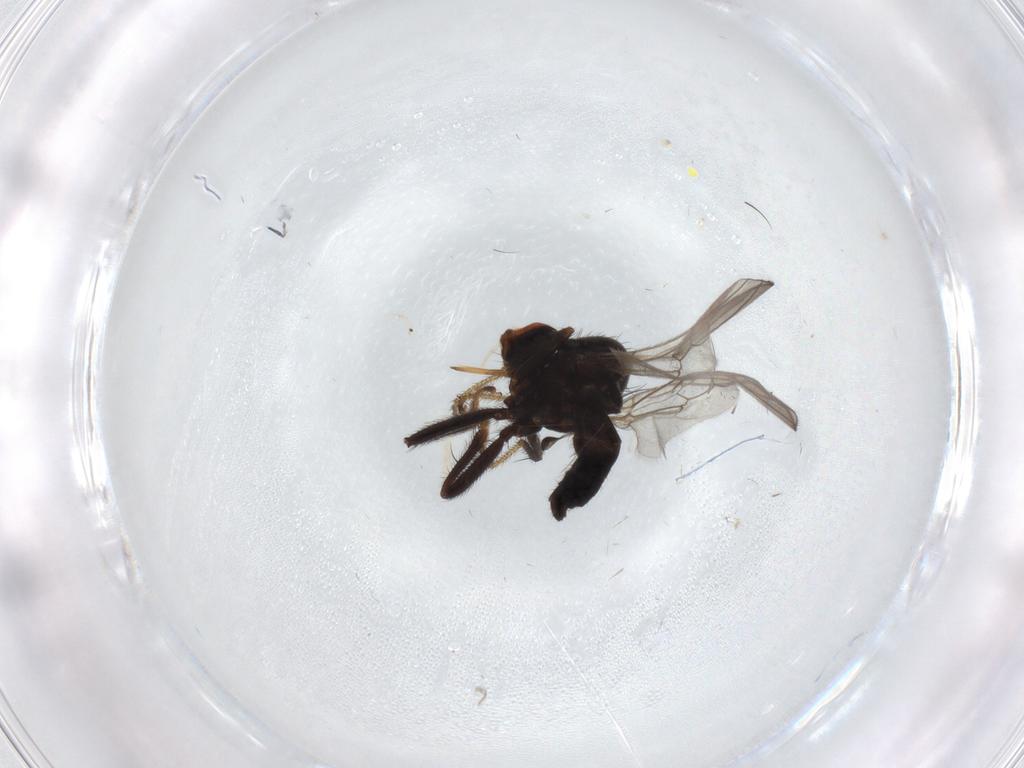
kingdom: Animalia
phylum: Arthropoda
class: Insecta
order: Diptera
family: Hybotidae
